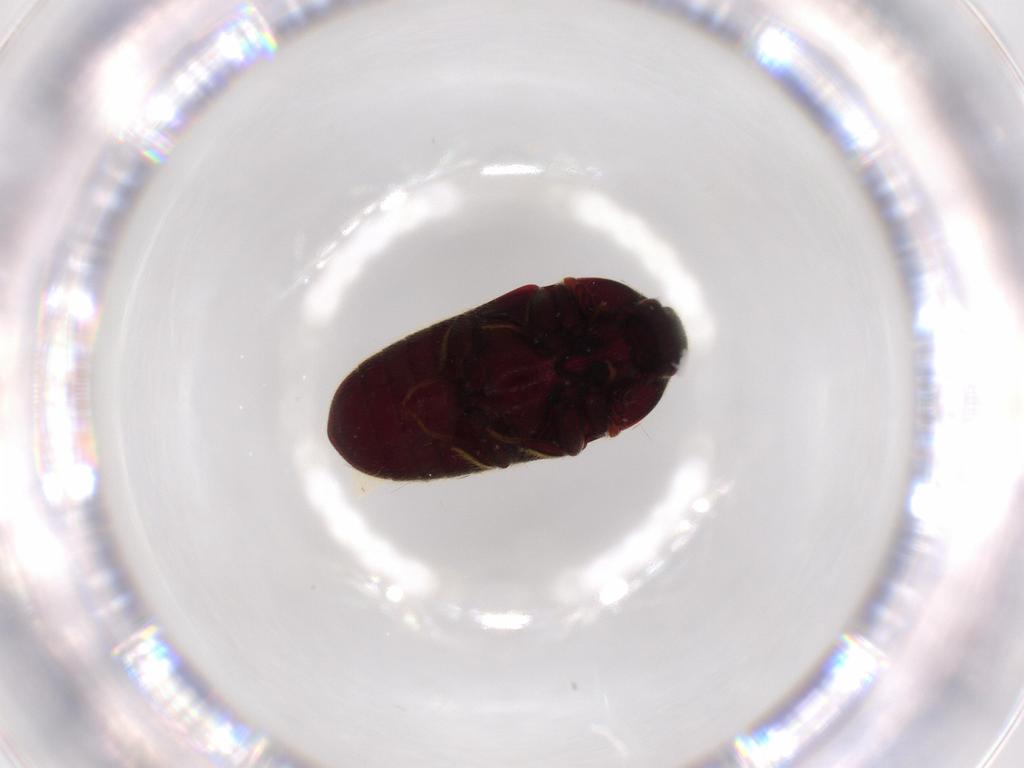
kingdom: Animalia
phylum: Arthropoda
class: Insecta
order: Coleoptera
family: Throscidae
